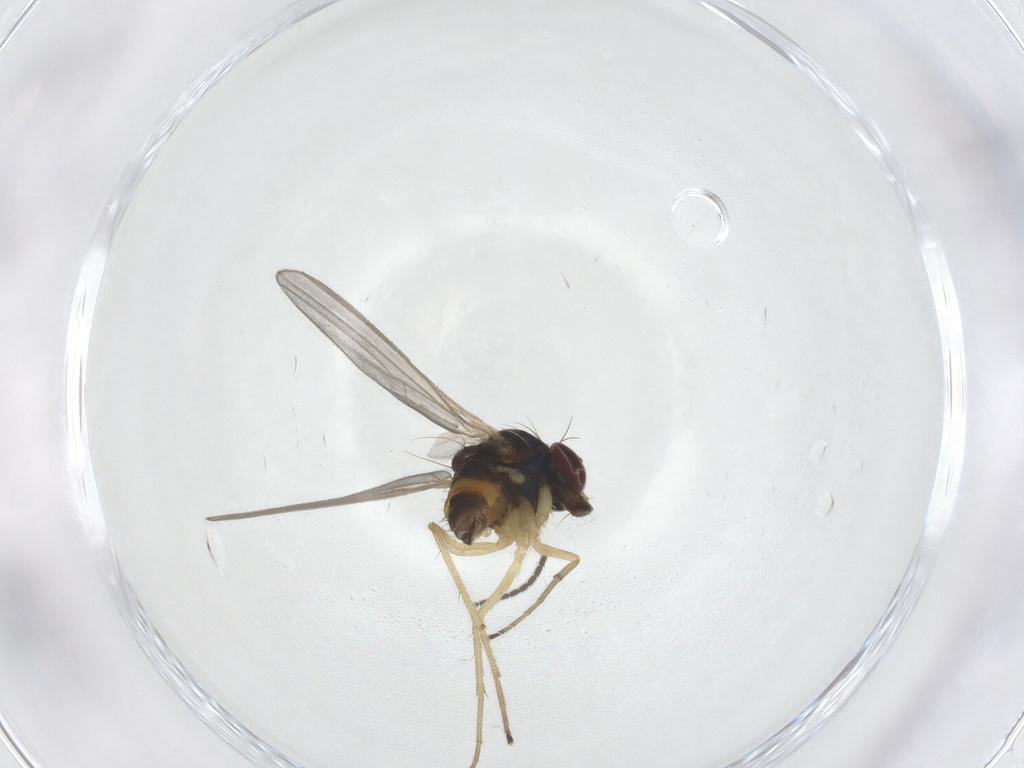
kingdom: Animalia
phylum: Arthropoda
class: Insecta
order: Diptera
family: Dolichopodidae
